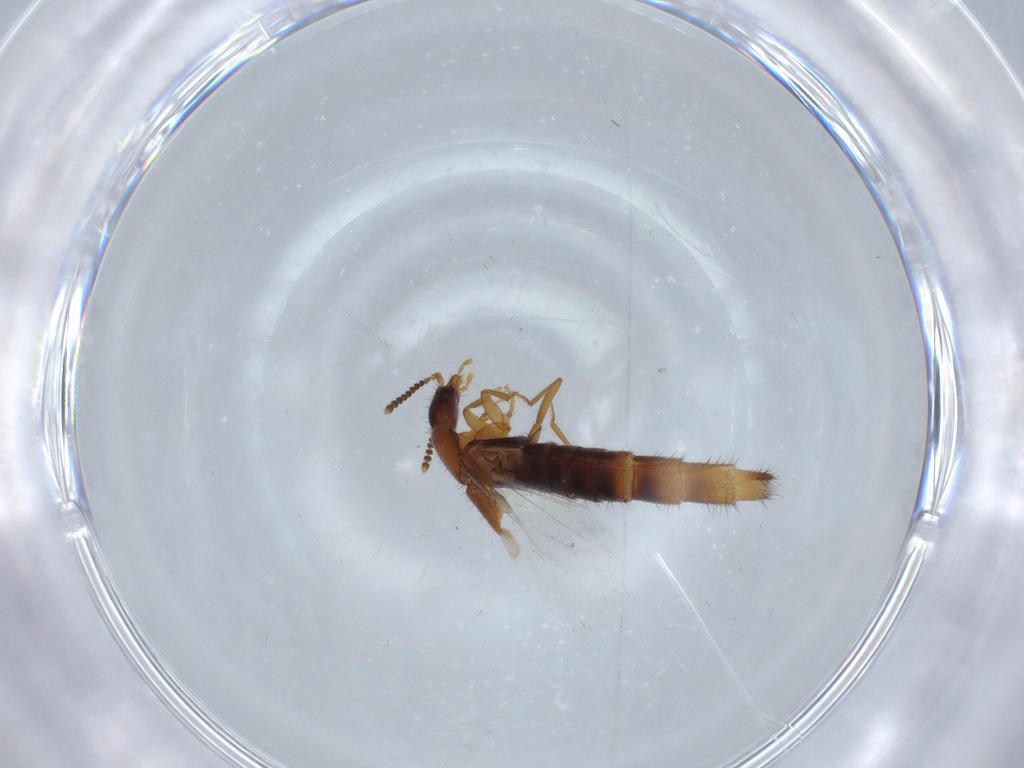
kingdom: Animalia
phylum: Arthropoda
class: Insecta
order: Coleoptera
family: Staphylinidae
